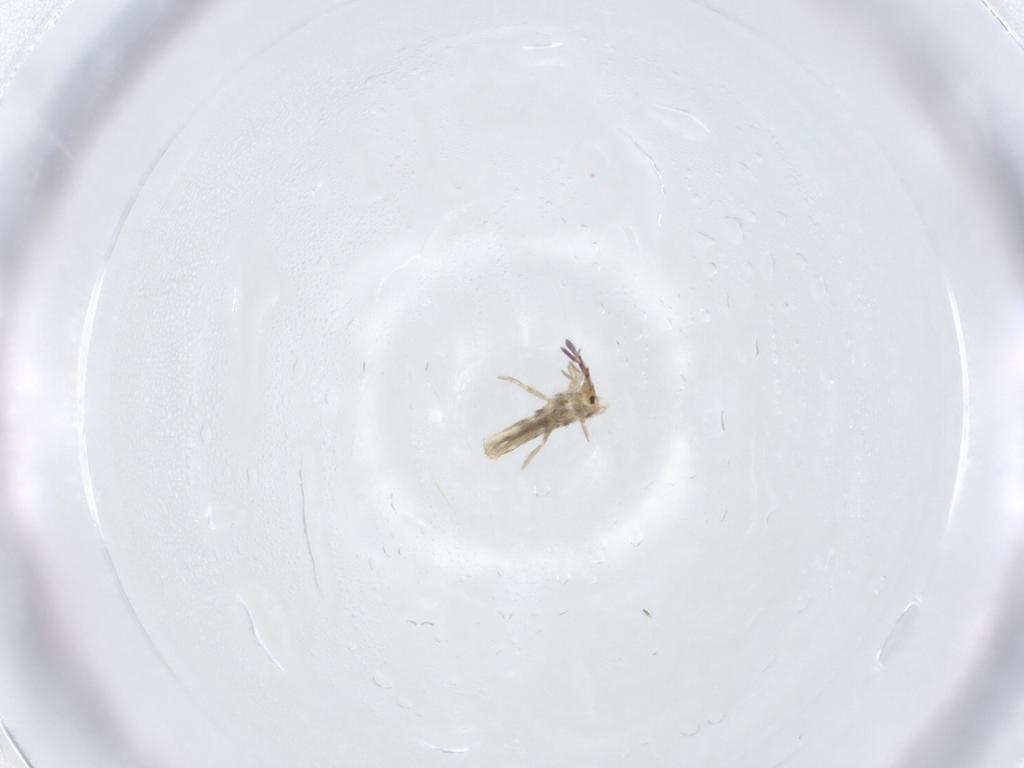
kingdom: Animalia
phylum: Arthropoda
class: Collembola
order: Entomobryomorpha
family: Entomobryidae
